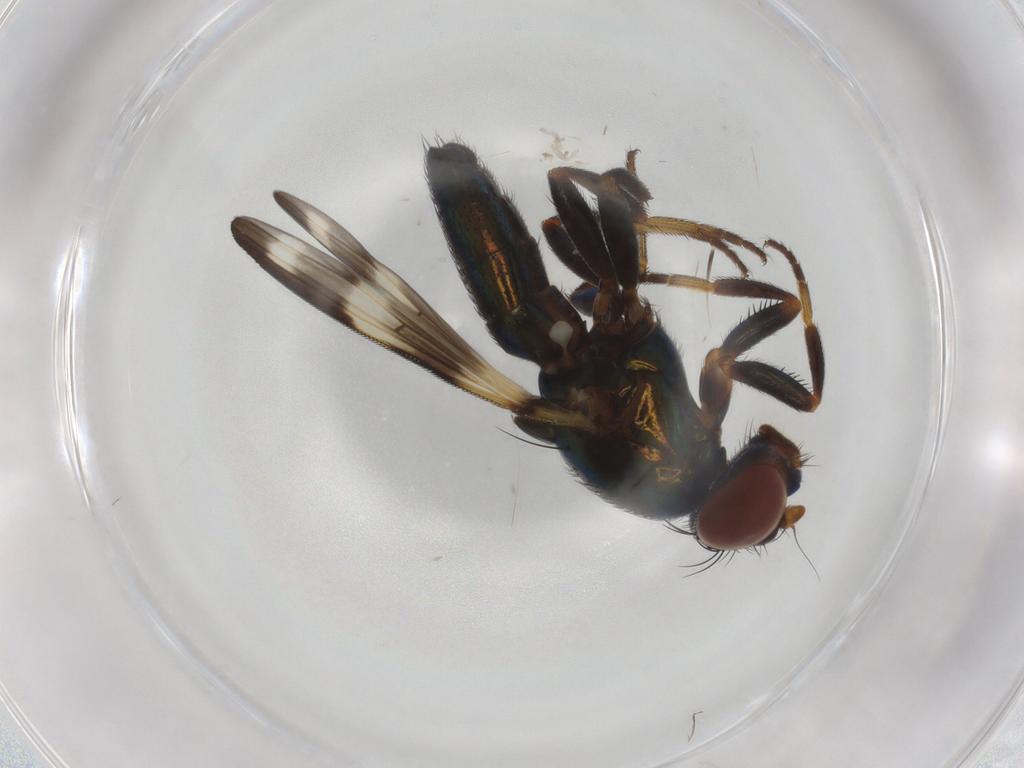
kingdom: Animalia
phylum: Arthropoda
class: Insecta
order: Diptera
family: Ulidiidae
